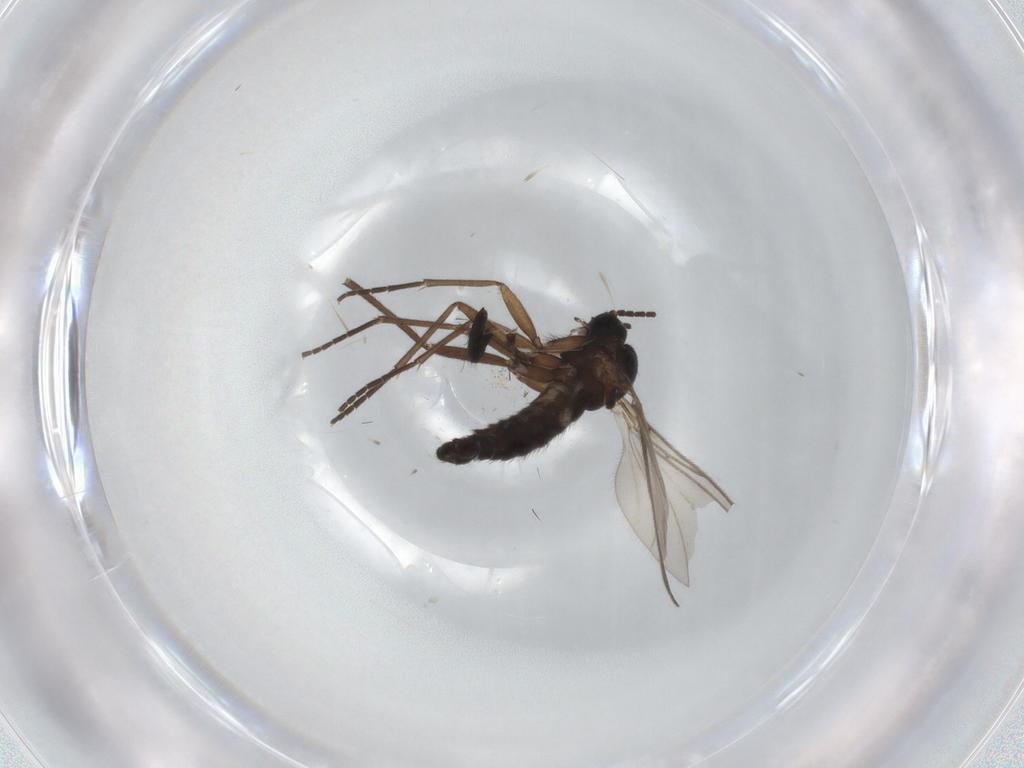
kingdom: Animalia
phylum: Arthropoda
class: Insecta
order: Diptera
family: Sciaridae
